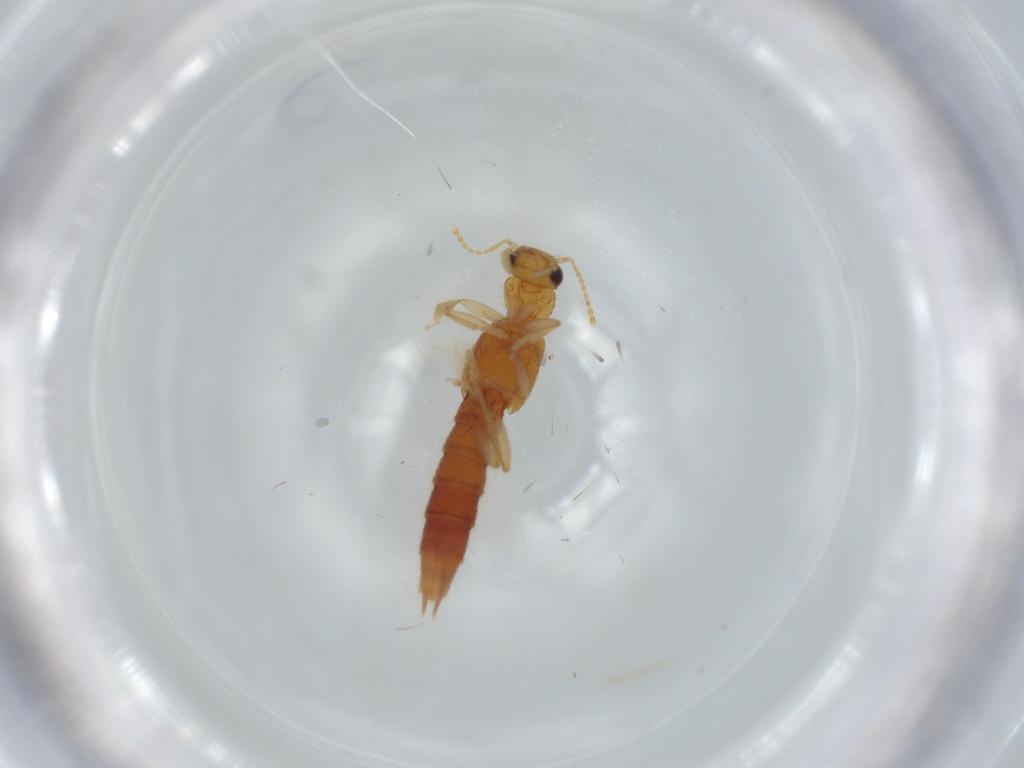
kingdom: Animalia
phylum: Arthropoda
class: Insecta
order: Coleoptera
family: Staphylinidae
